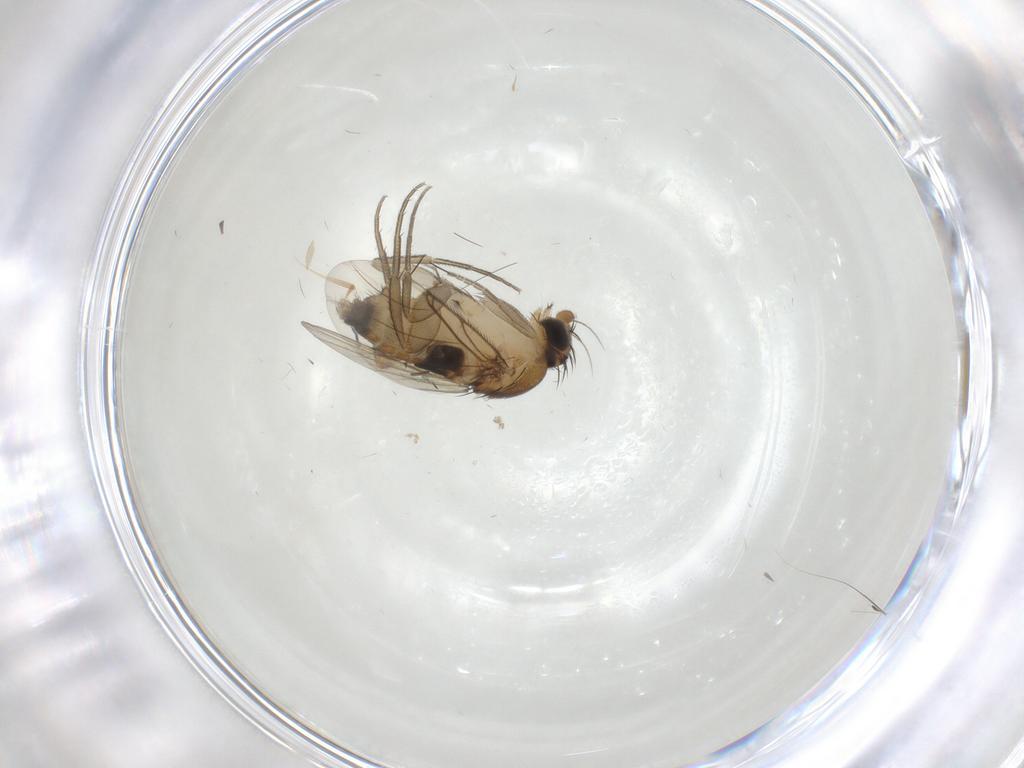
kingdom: Animalia
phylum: Arthropoda
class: Insecta
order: Diptera
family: Phoridae
